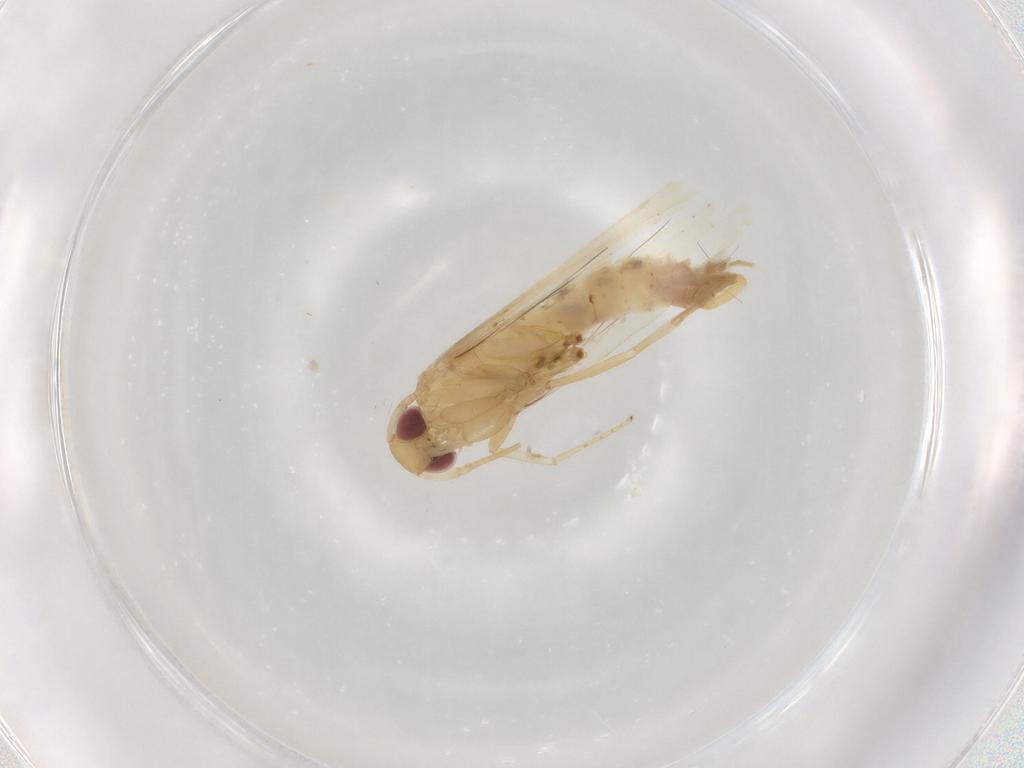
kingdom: Animalia
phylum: Arthropoda
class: Insecta
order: Lepidoptera
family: Cosmopterigidae
